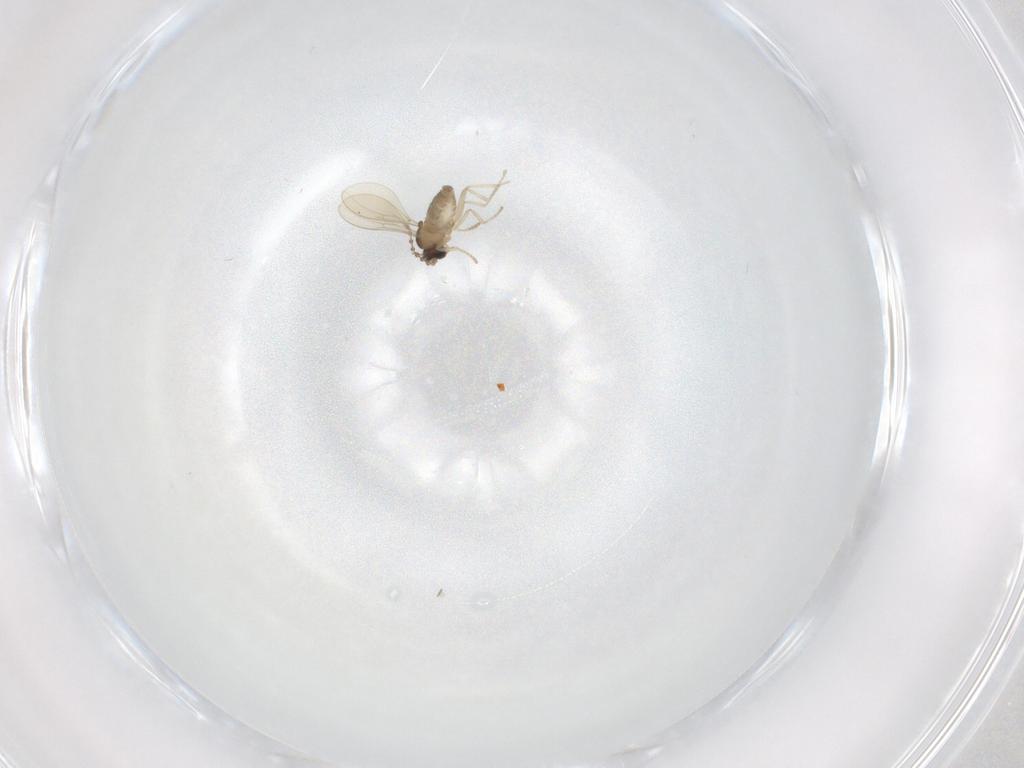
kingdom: Animalia
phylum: Arthropoda
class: Insecta
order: Diptera
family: Cecidomyiidae
